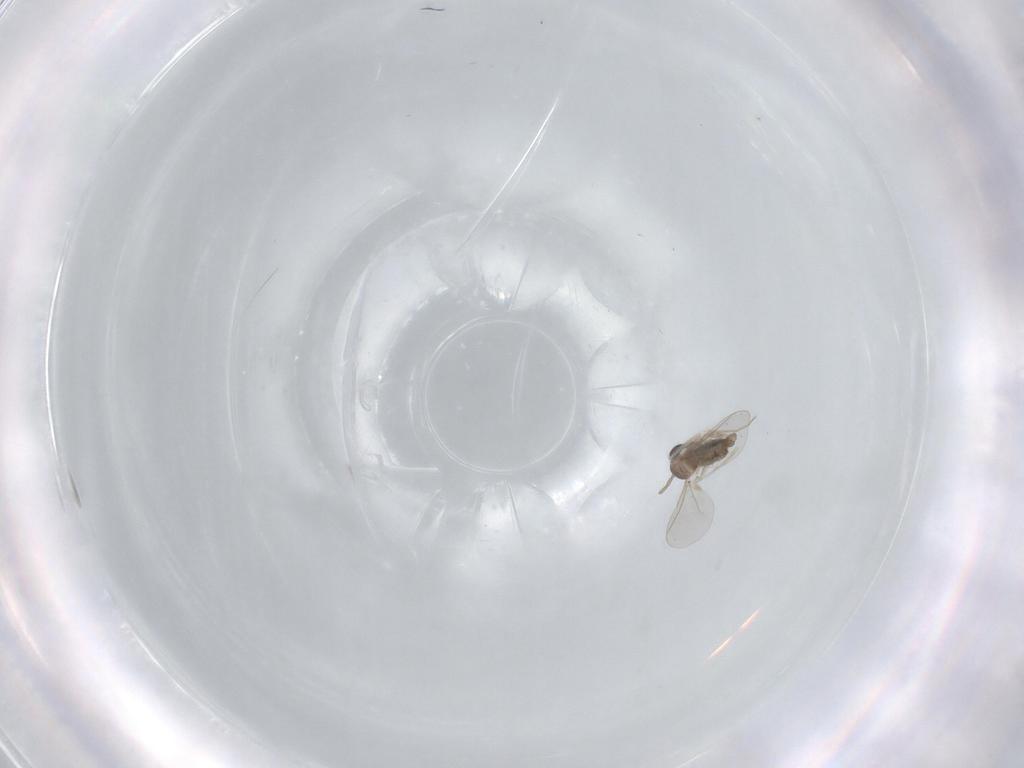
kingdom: Animalia
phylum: Arthropoda
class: Insecta
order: Diptera
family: Cecidomyiidae
